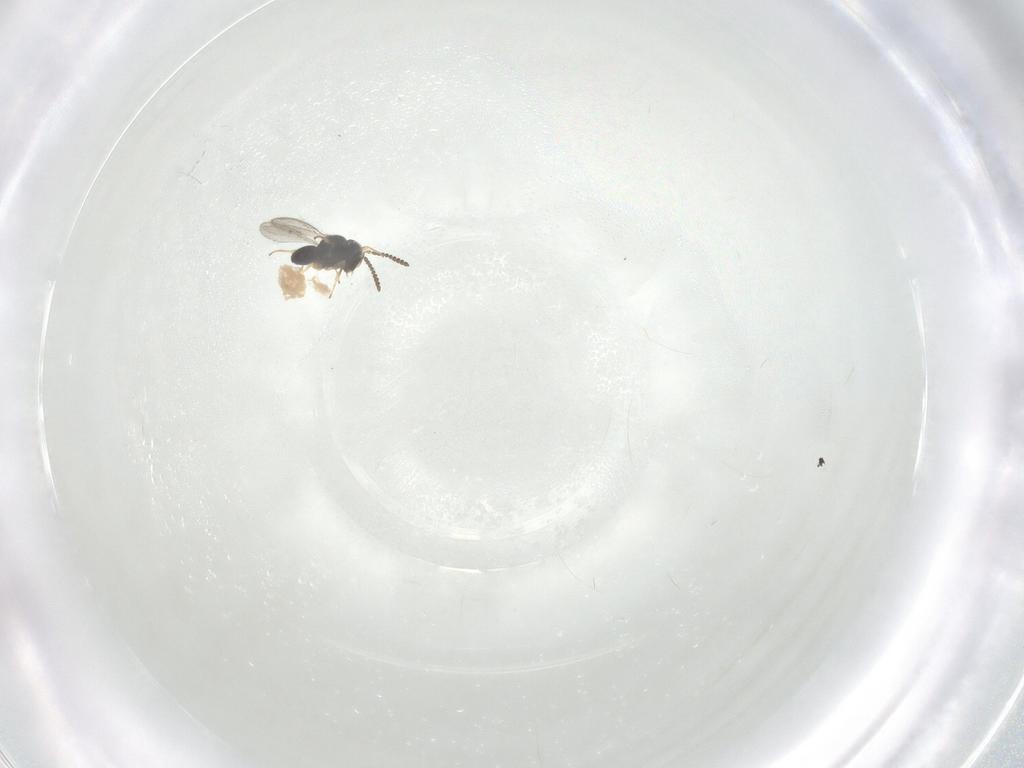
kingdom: Animalia
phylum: Arthropoda
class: Insecta
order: Hymenoptera
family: Scelionidae
